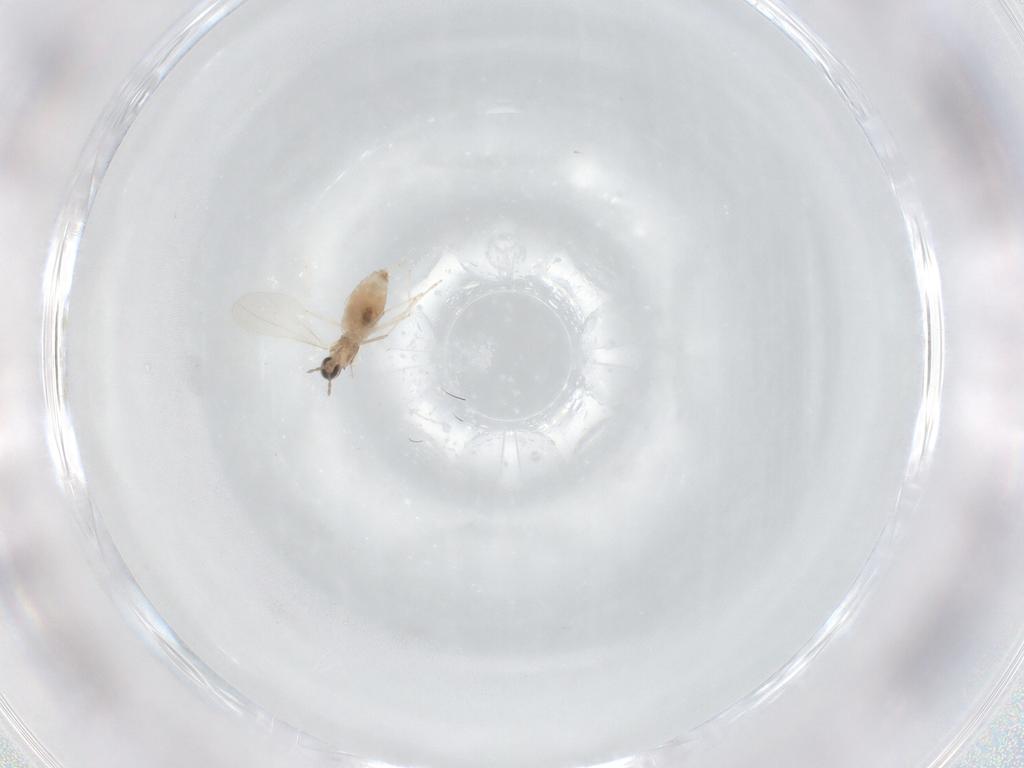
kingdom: Animalia
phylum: Arthropoda
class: Insecta
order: Diptera
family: Cecidomyiidae
